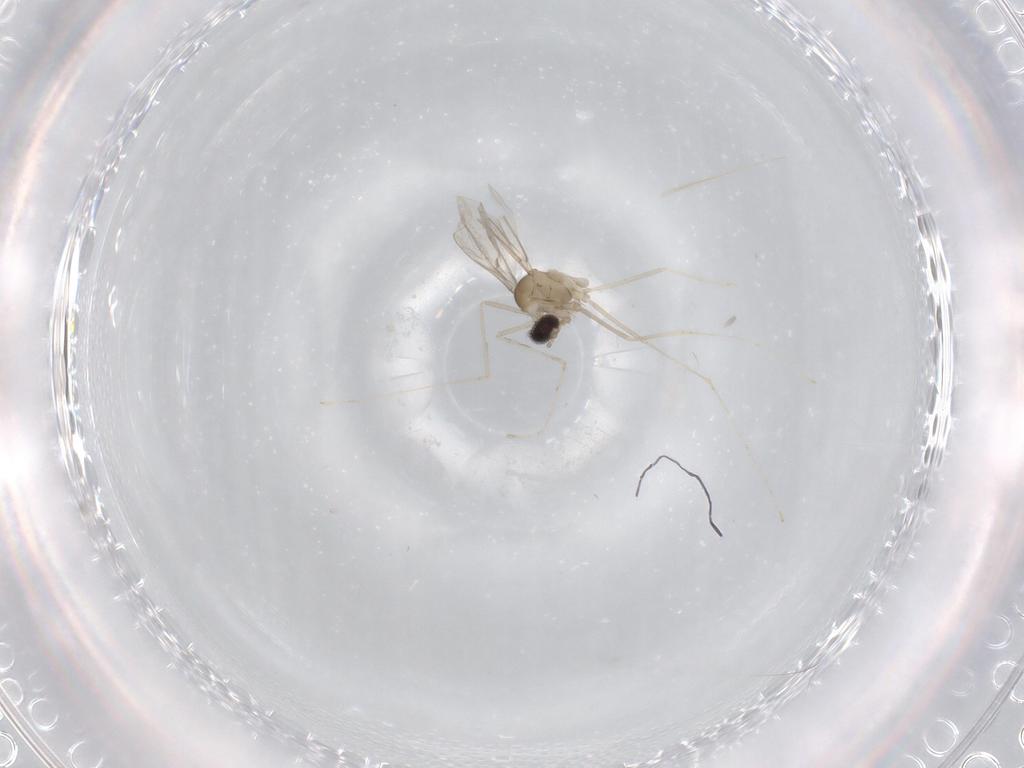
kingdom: Animalia
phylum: Arthropoda
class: Insecta
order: Diptera
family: Cecidomyiidae
